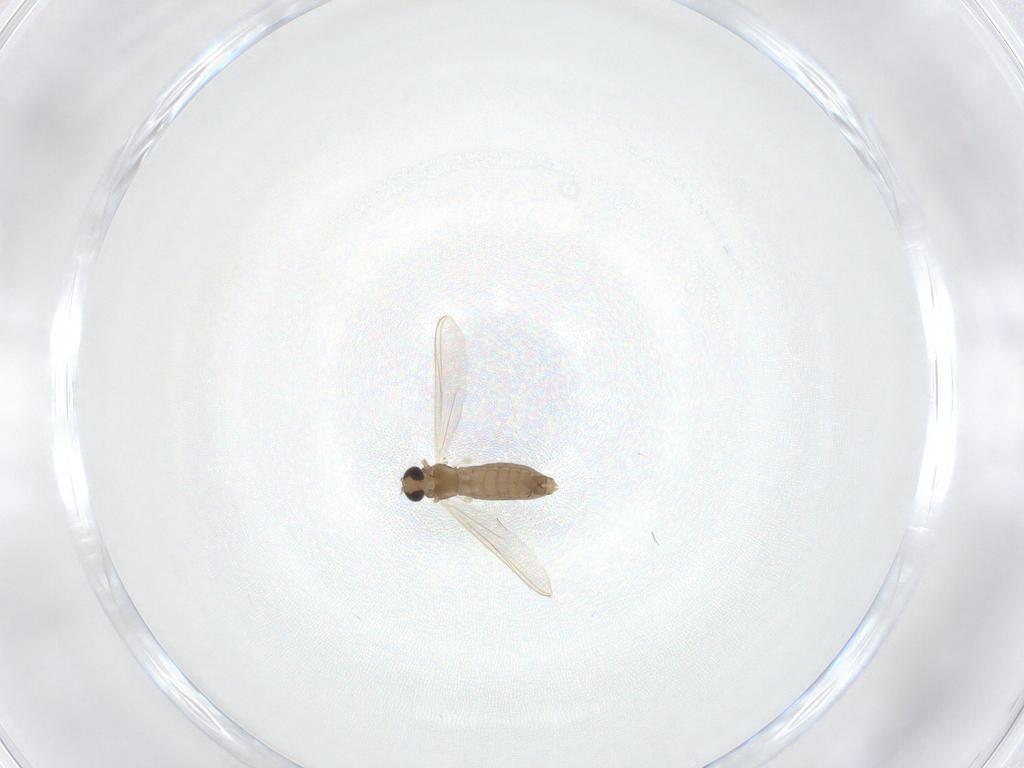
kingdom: Animalia
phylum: Arthropoda
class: Insecta
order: Diptera
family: Chironomidae
